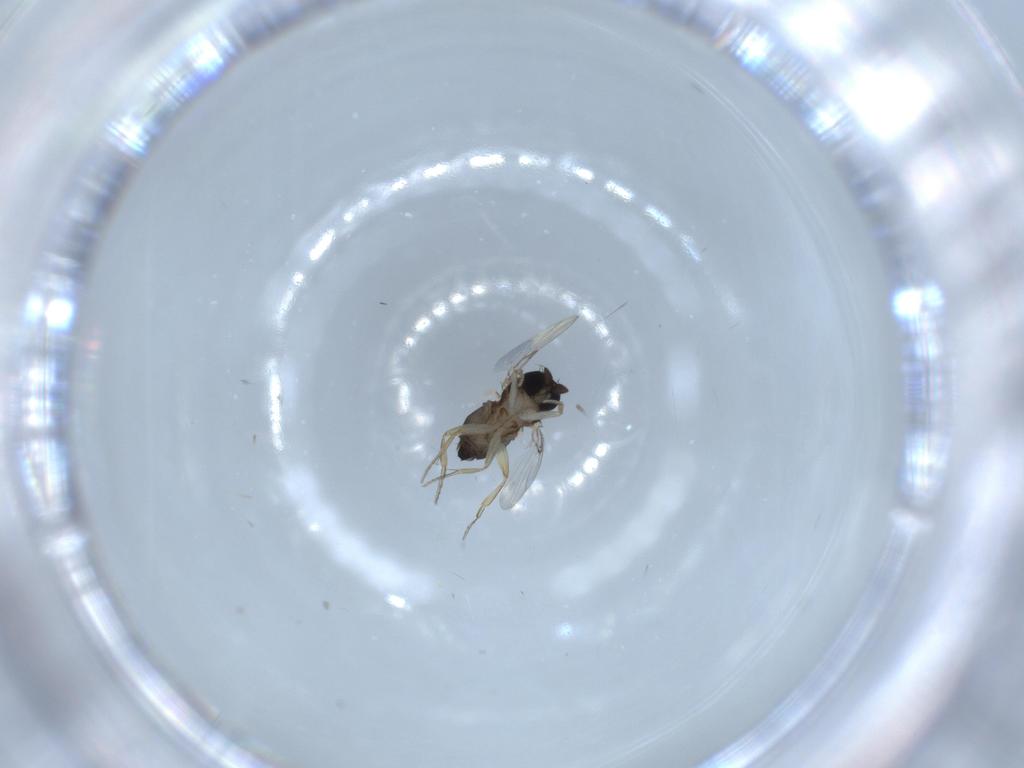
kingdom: Animalia
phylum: Arthropoda
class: Insecta
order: Diptera
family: Phoridae
